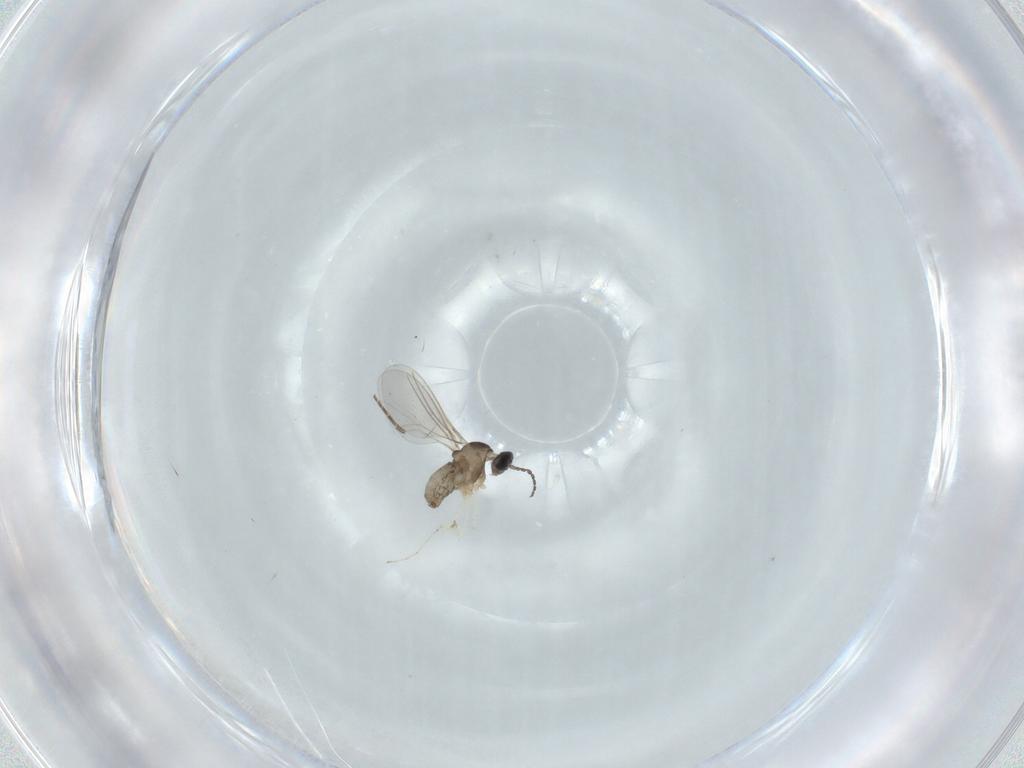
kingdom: Animalia
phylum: Arthropoda
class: Insecta
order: Diptera
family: Cecidomyiidae
